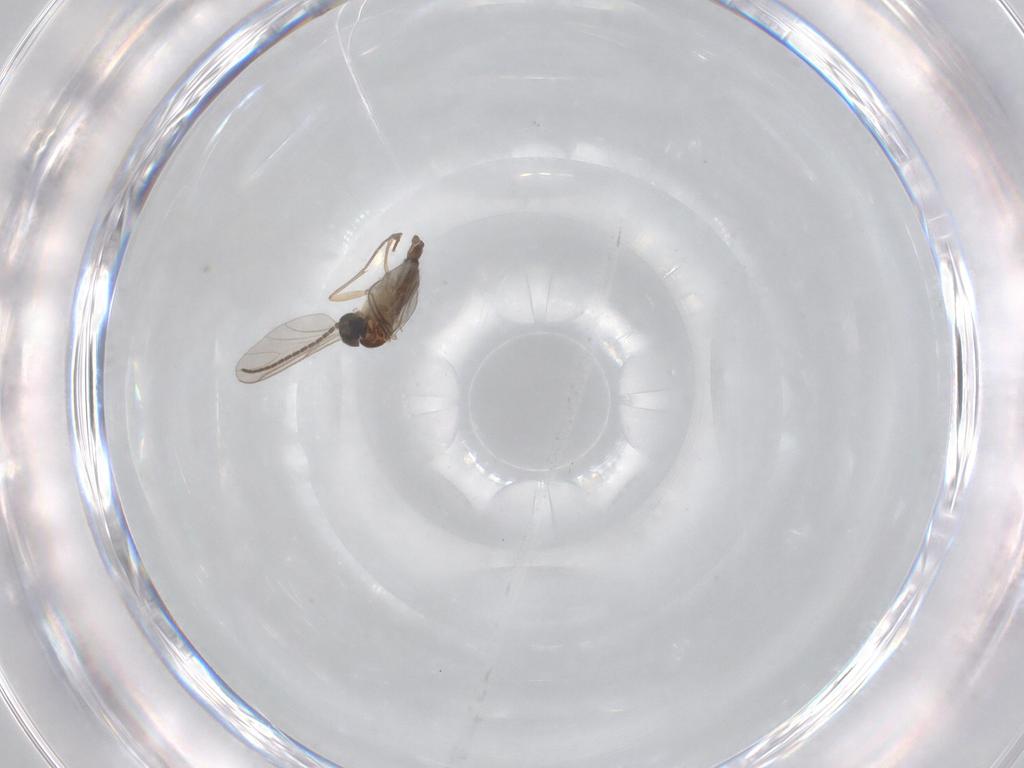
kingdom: Animalia
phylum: Arthropoda
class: Insecta
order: Diptera
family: Sciaridae
